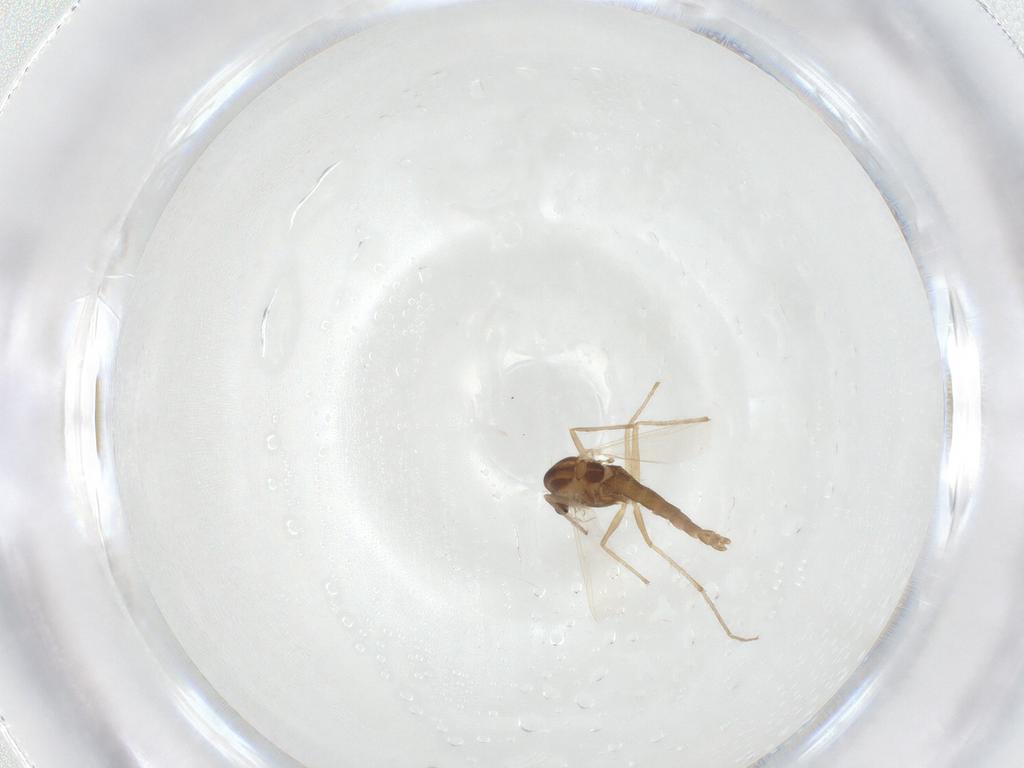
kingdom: Animalia
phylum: Arthropoda
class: Insecta
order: Diptera
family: Chironomidae
